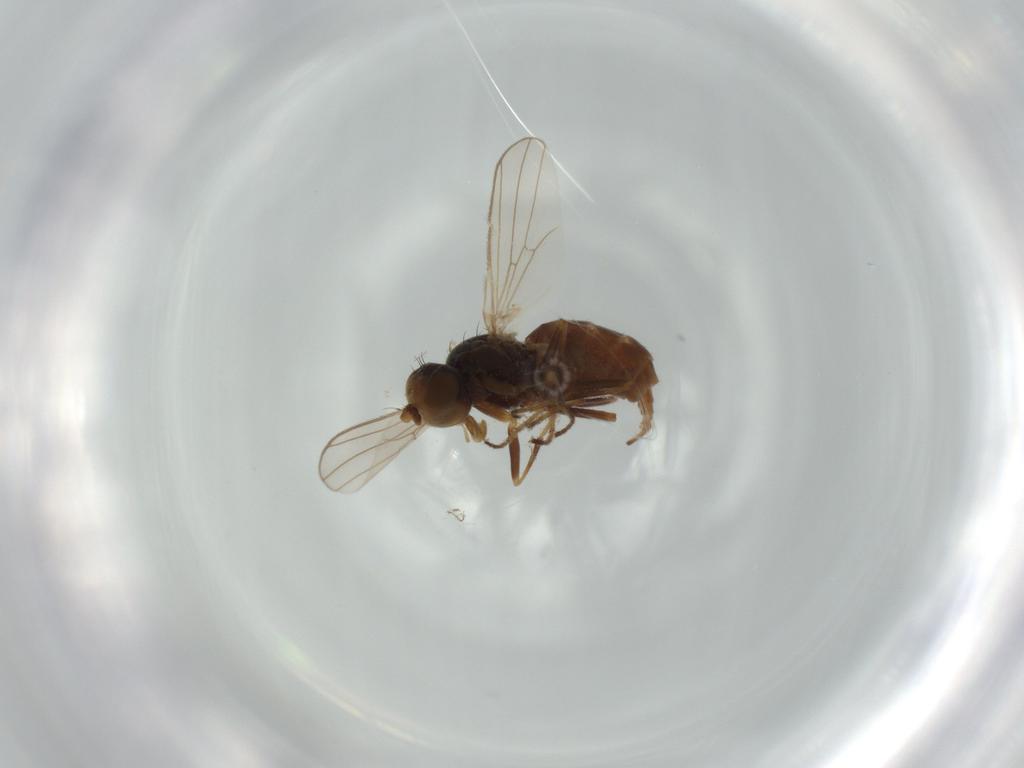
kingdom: Animalia
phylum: Arthropoda
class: Insecta
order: Diptera
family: Canacidae
